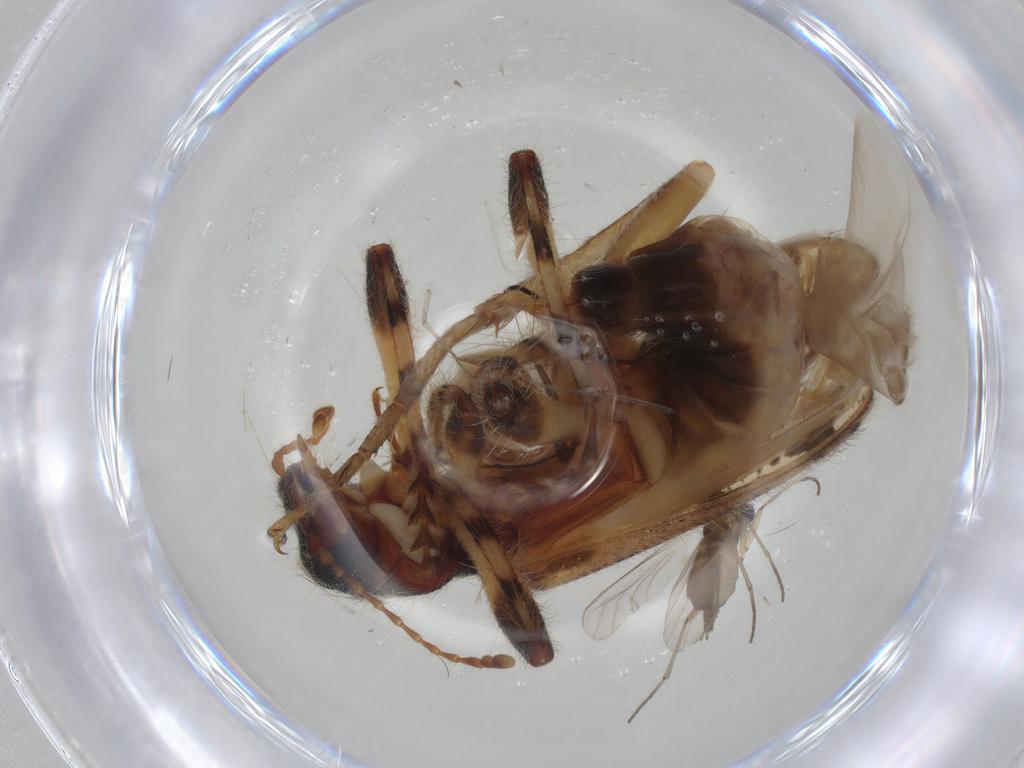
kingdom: Animalia
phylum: Arthropoda
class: Insecta
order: Diptera
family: Sciaridae
